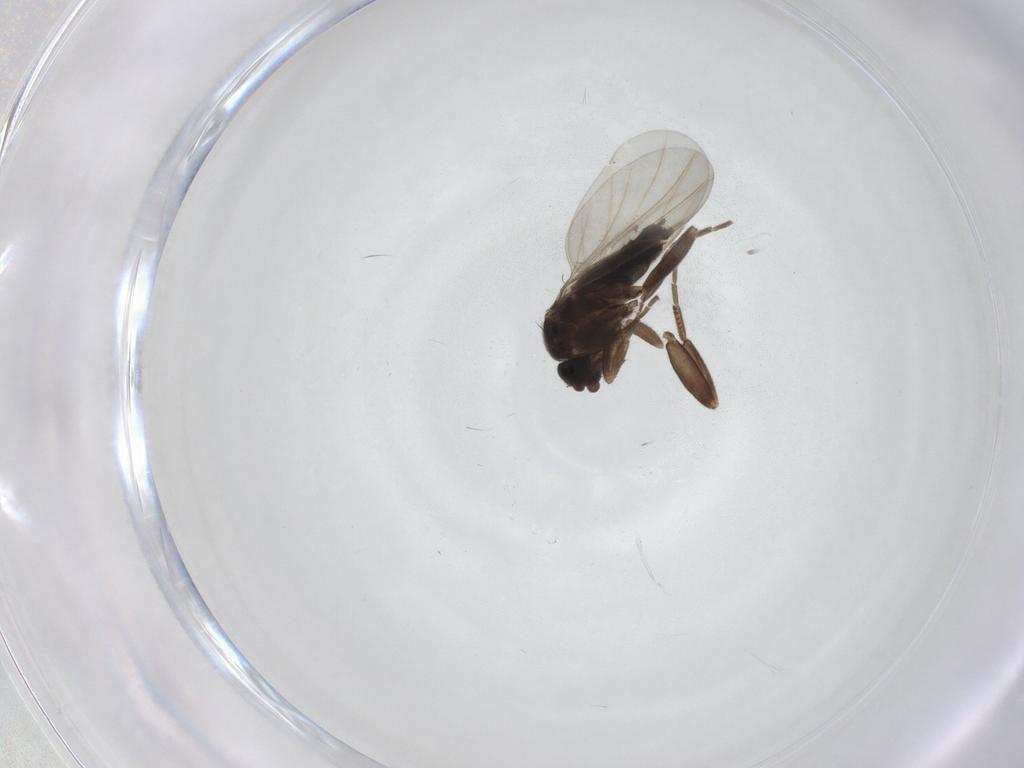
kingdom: Animalia
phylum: Arthropoda
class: Insecta
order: Diptera
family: Phoridae
